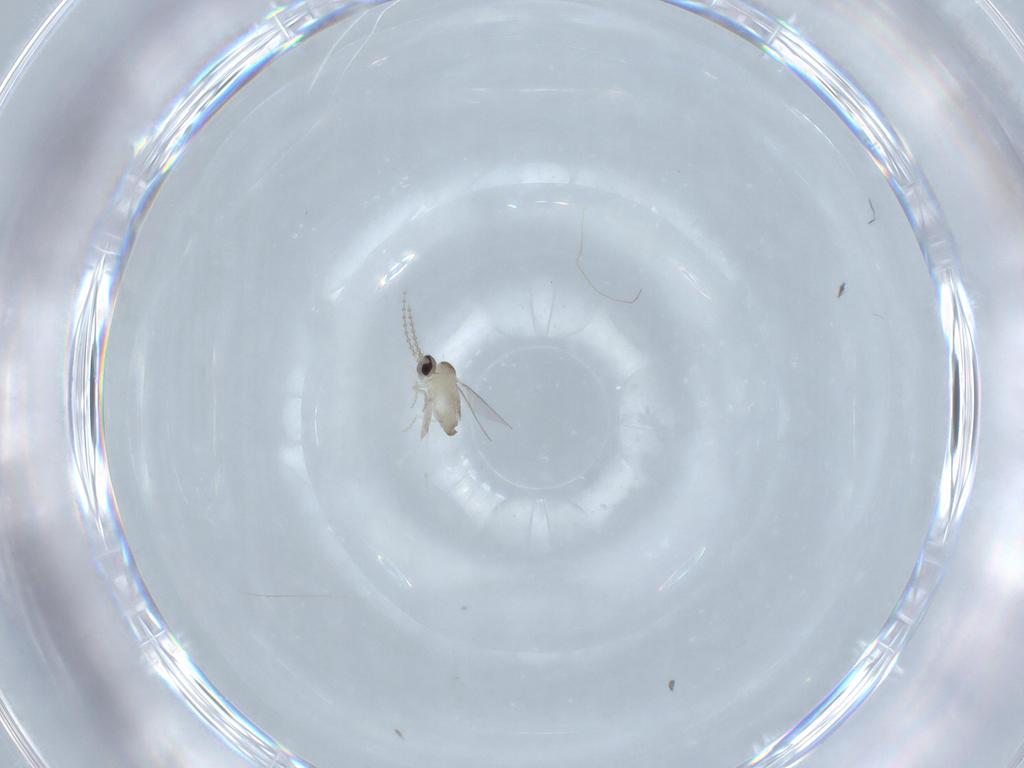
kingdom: Animalia
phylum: Arthropoda
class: Insecta
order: Diptera
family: Cecidomyiidae
